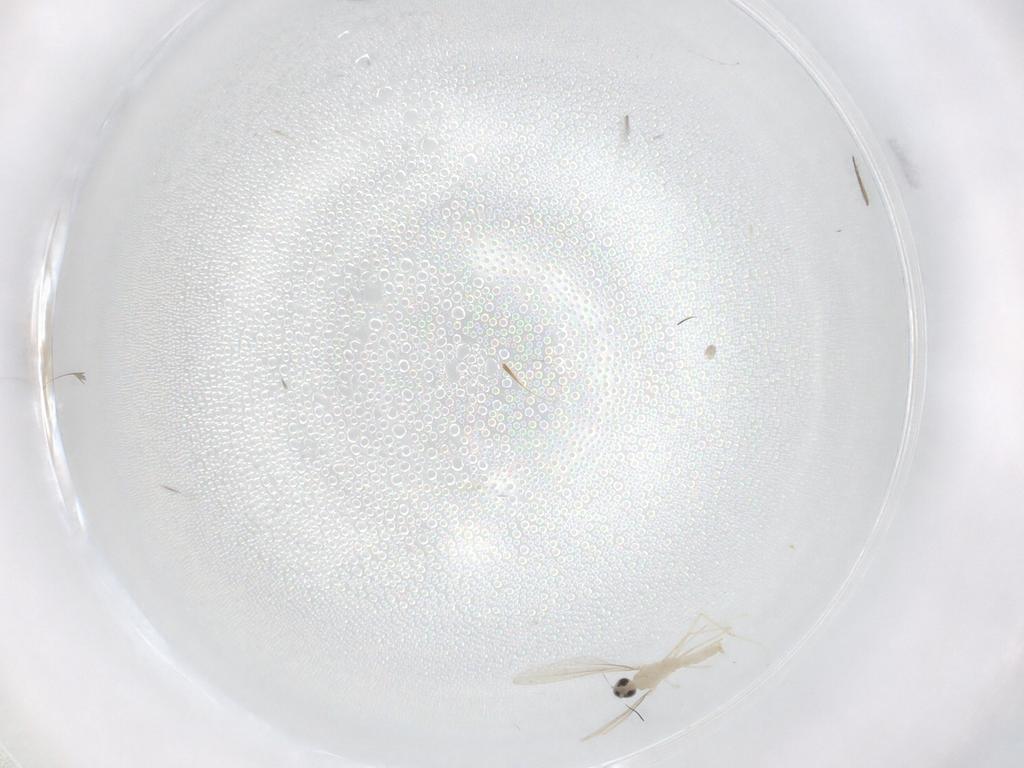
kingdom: Animalia
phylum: Arthropoda
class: Insecta
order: Diptera
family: Cecidomyiidae
